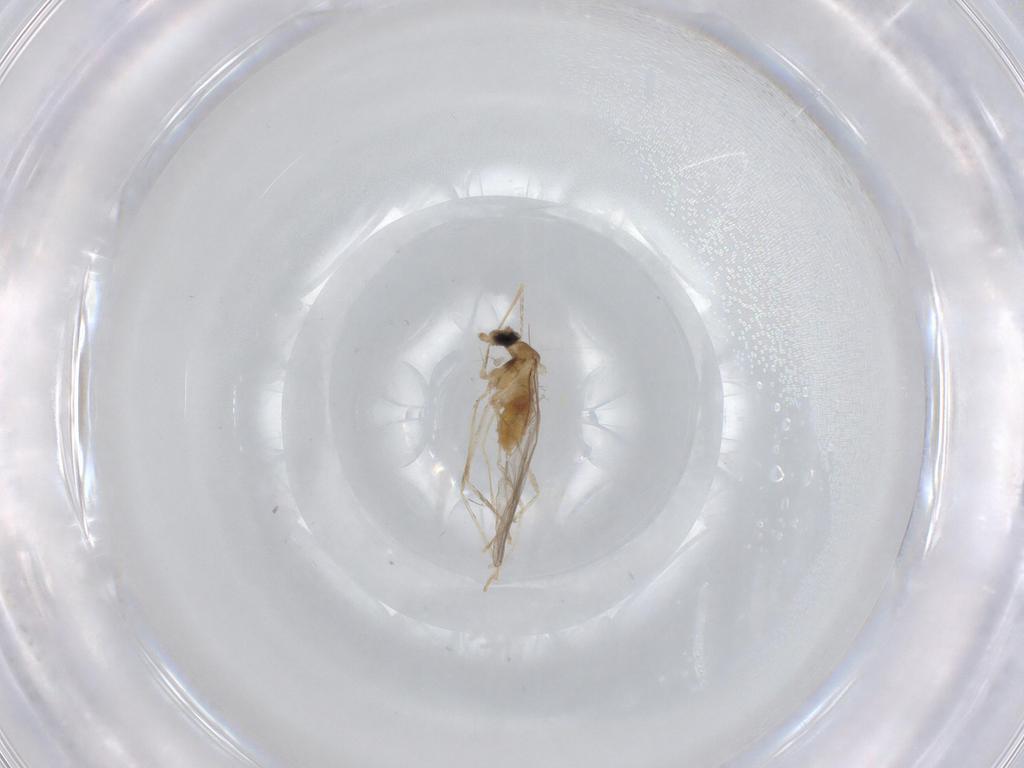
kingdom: Animalia
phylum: Arthropoda
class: Insecta
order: Diptera
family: Cecidomyiidae
